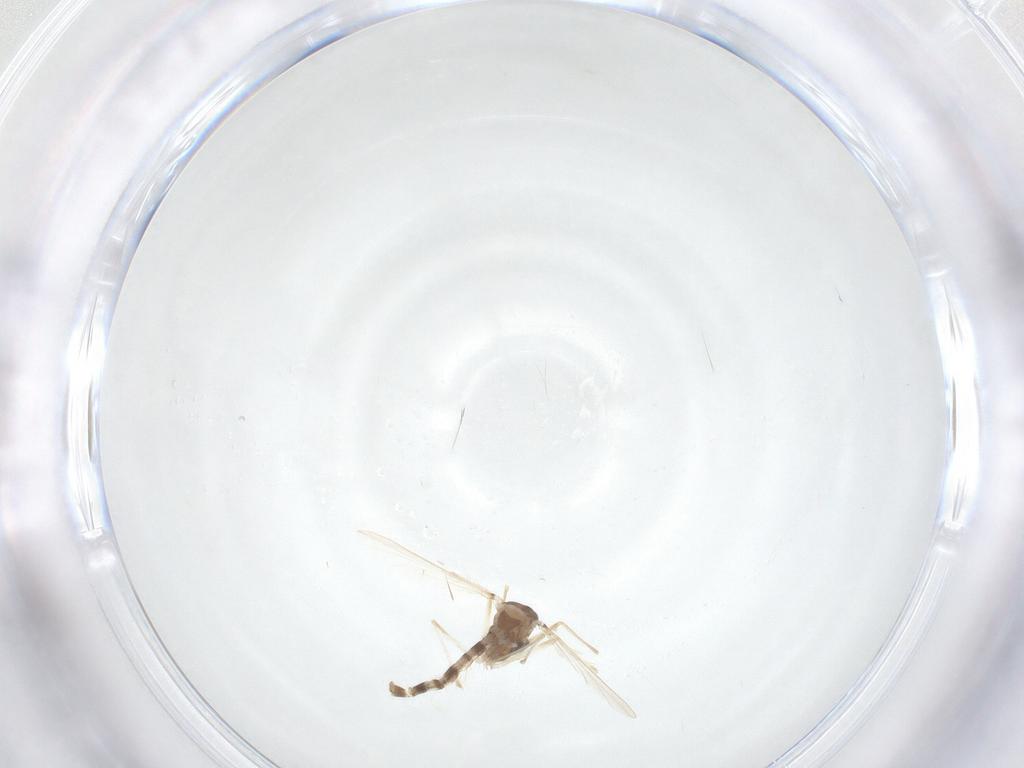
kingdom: Animalia
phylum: Arthropoda
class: Insecta
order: Diptera
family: Chironomidae
